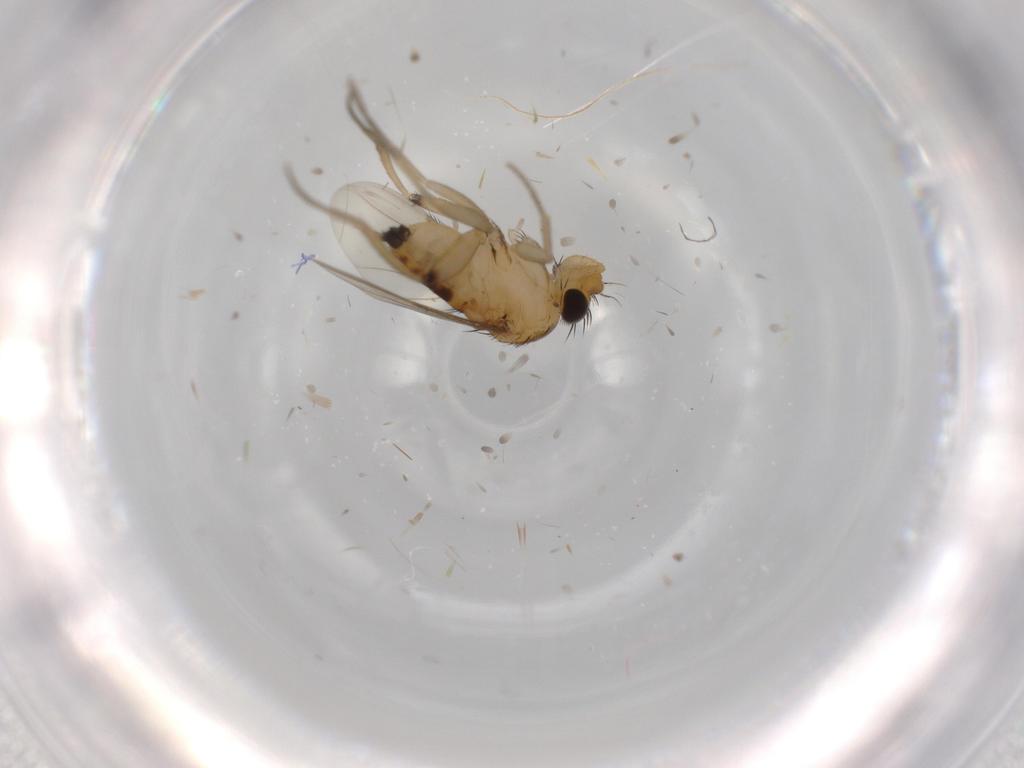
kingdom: Animalia
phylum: Arthropoda
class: Insecta
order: Diptera
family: Phoridae
